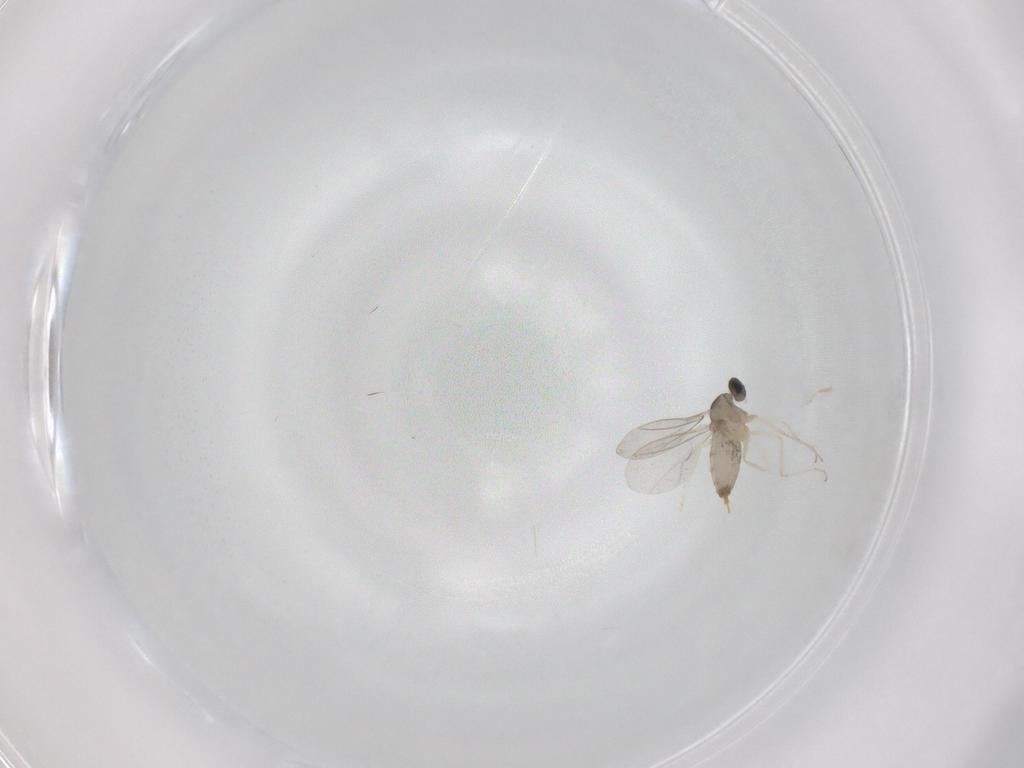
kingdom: Animalia
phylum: Arthropoda
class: Insecta
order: Diptera
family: Cecidomyiidae
